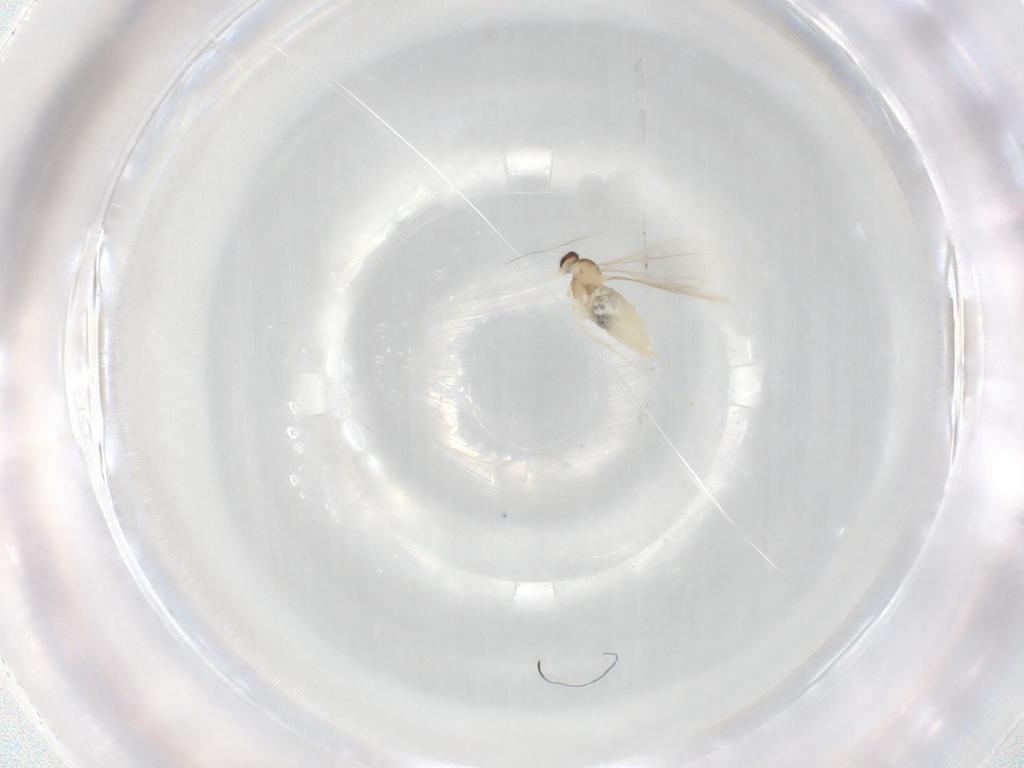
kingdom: Animalia
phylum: Arthropoda
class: Insecta
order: Diptera
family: Cecidomyiidae
